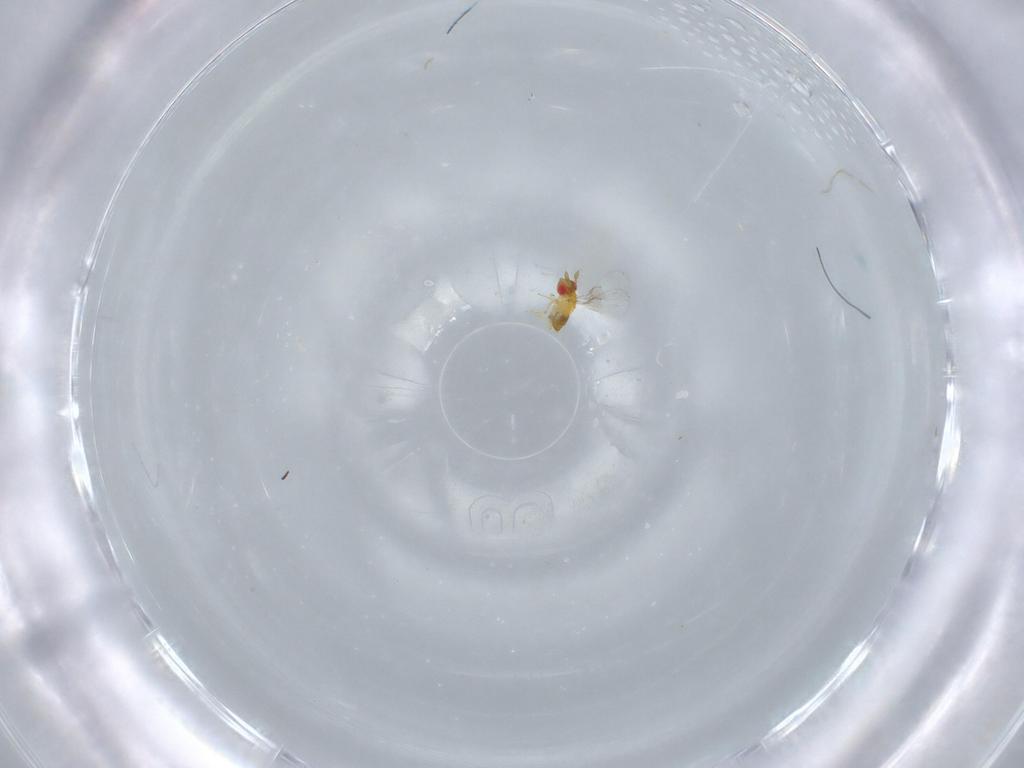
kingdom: Animalia
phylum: Arthropoda
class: Insecta
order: Hymenoptera
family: Trichogrammatidae
